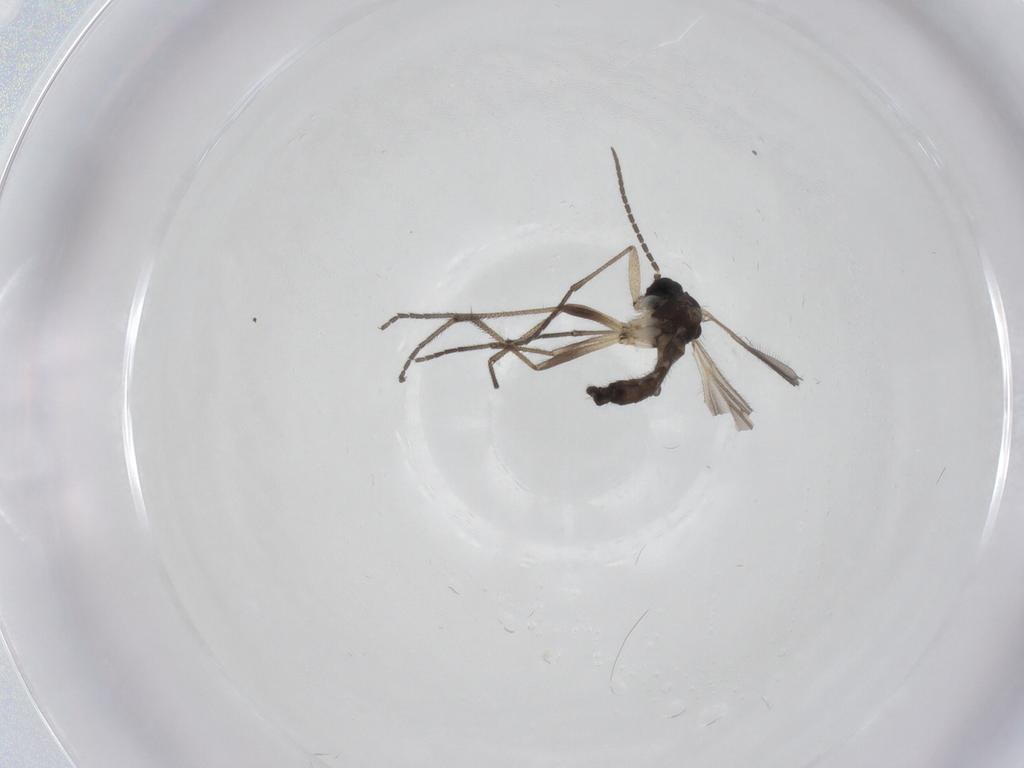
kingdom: Animalia
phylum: Arthropoda
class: Insecta
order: Diptera
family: Sciaridae
